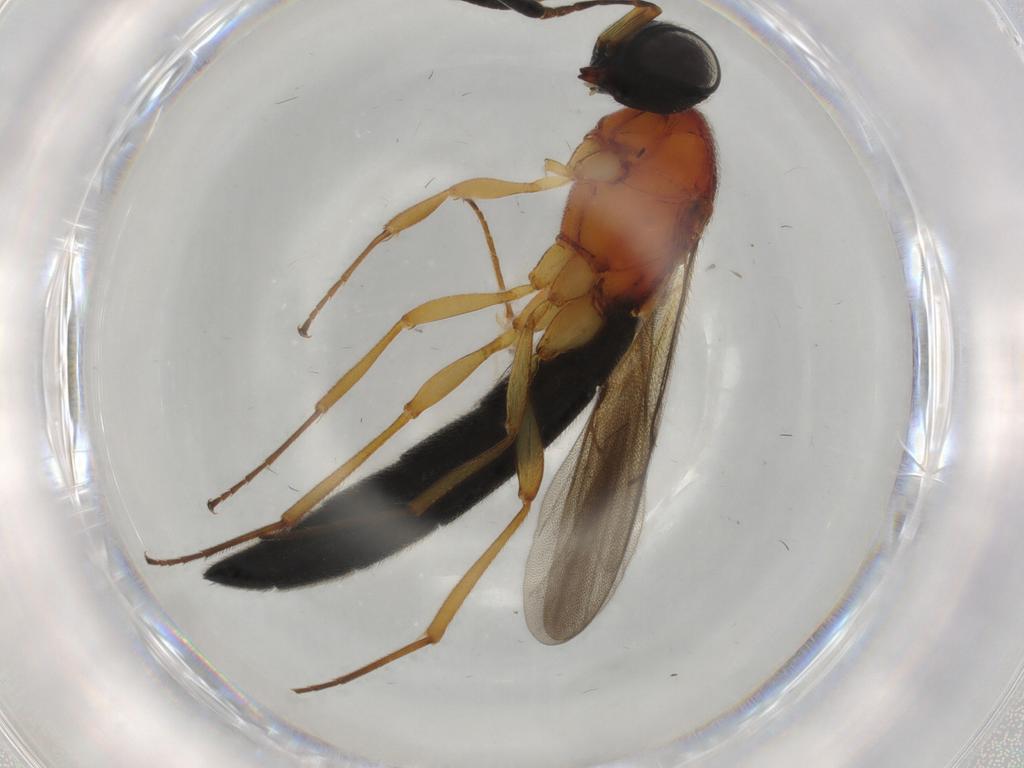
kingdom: Animalia
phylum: Arthropoda
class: Insecta
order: Hymenoptera
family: Scelionidae
